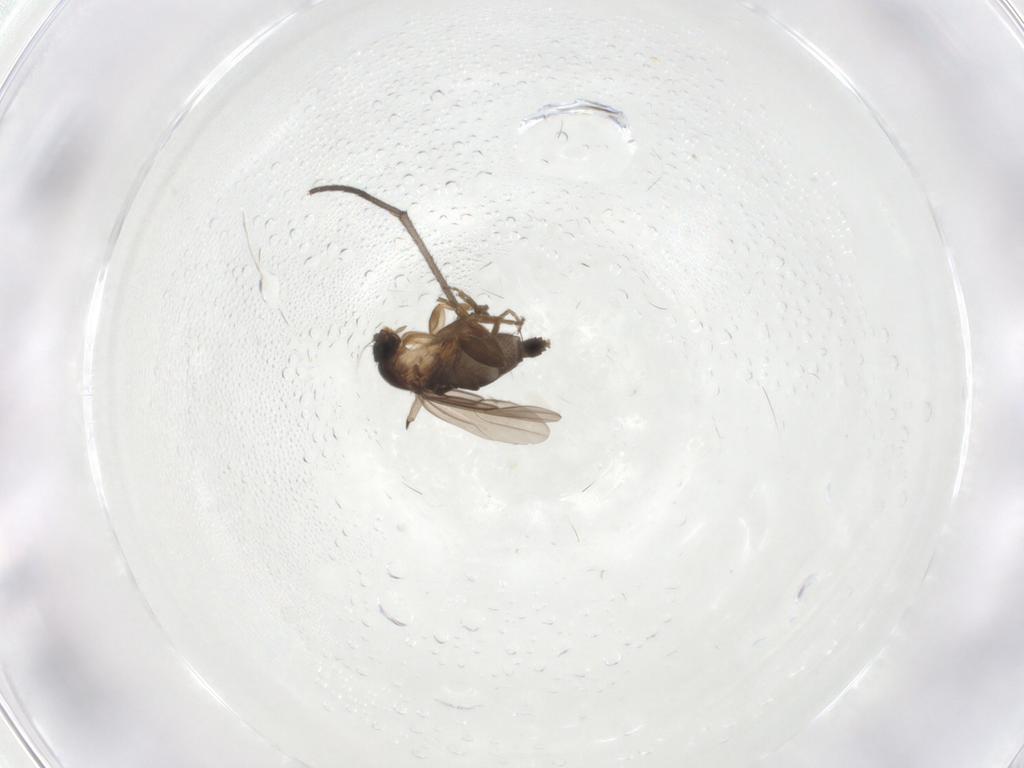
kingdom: Animalia
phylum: Arthropoda
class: Insecta
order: Diptera
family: Sciaridae
